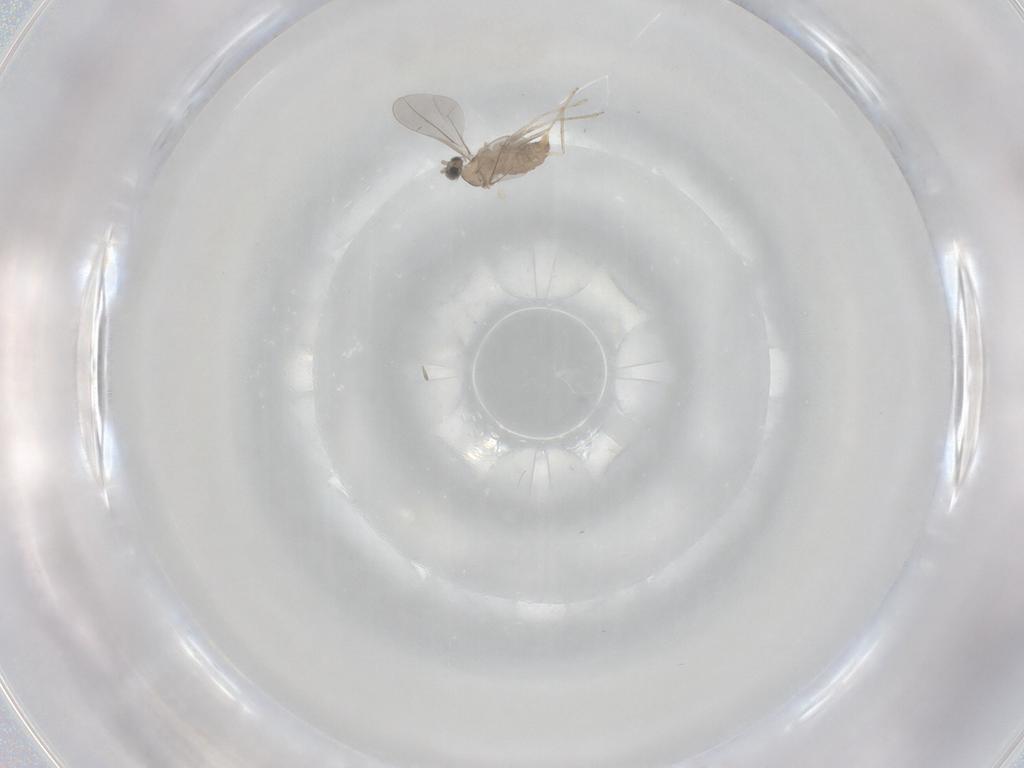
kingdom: Animalia
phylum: Arthropoda
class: Insecta
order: Diptera
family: Cecidomyiidae
